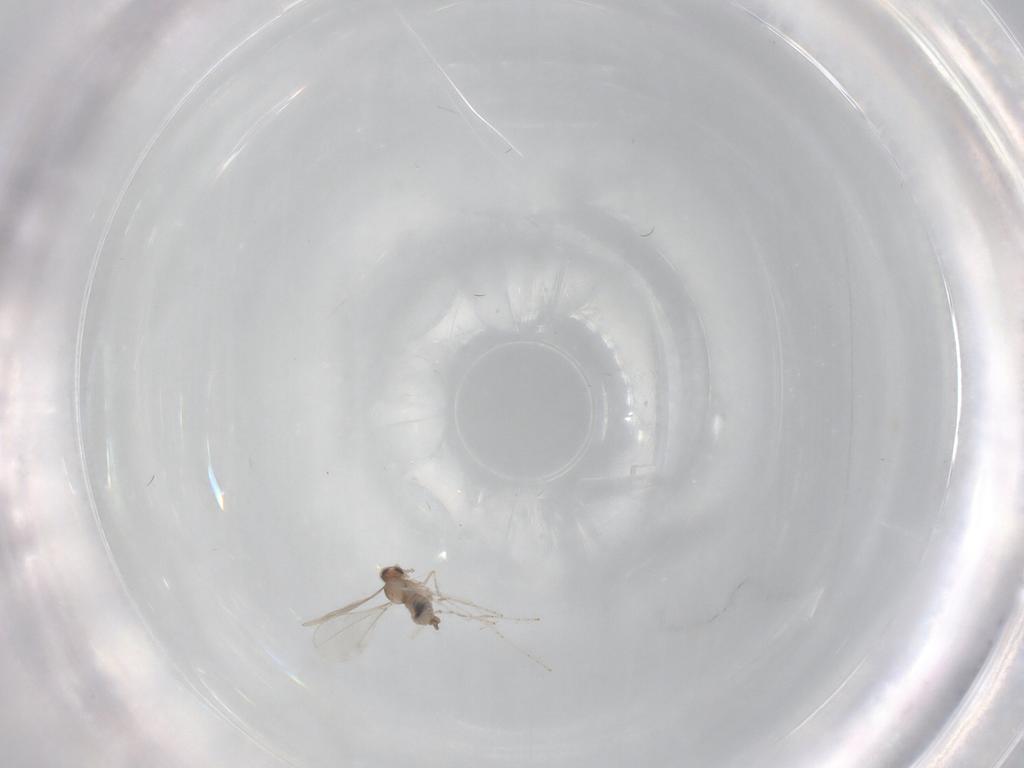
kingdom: Animalia
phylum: Arthropoda
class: Insecta
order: Diptera
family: Cecidomyiidae
